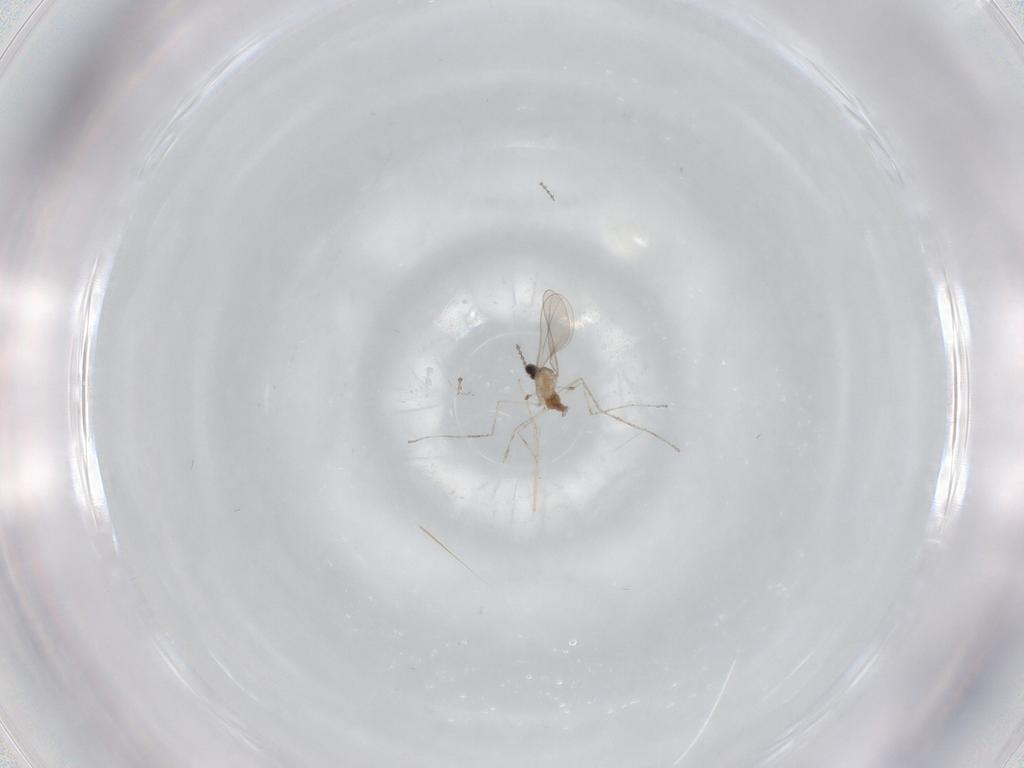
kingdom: Animalia
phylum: Arthropoda
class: Insecta
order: Diptera
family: Chironomidae
